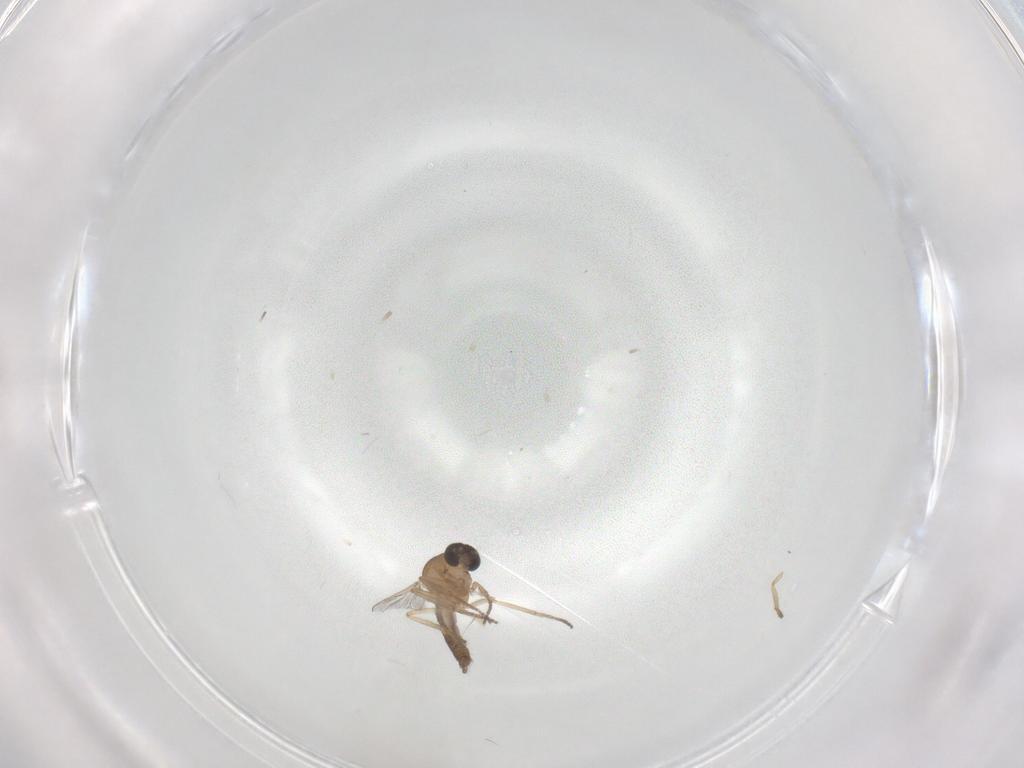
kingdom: Animalia
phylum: Arthropoda
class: Insecta
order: Diptera
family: Ceratopogonidae
